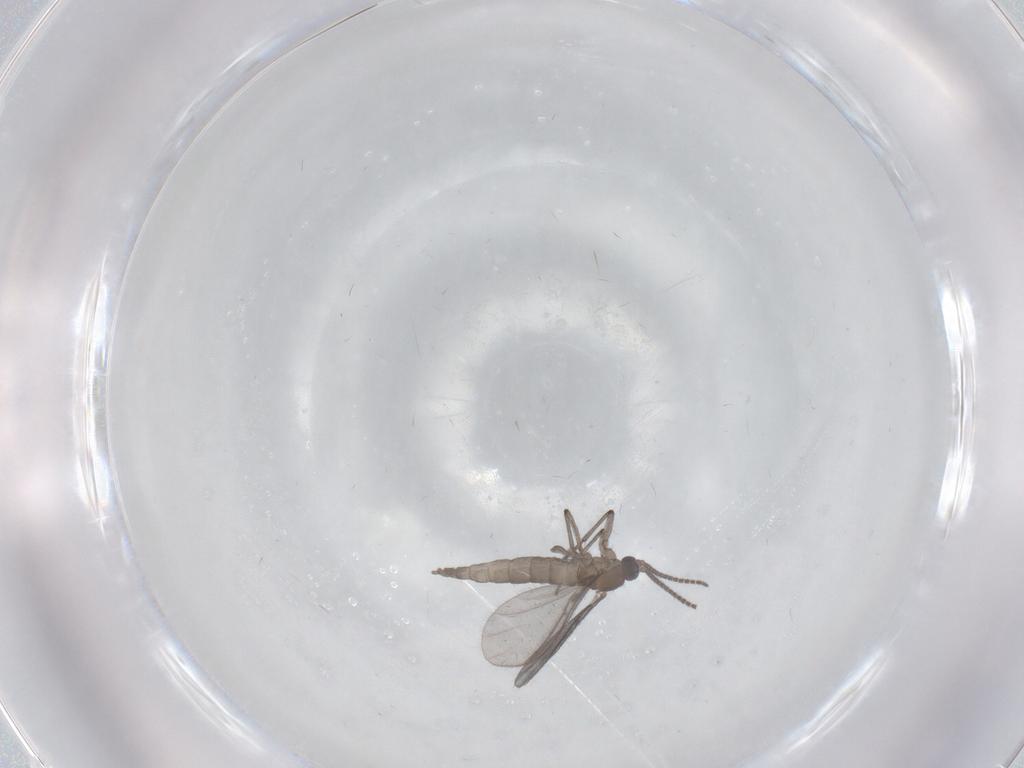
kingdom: Animalia
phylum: Arthropoda
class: Insecta
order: Diptera
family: Sciaridae
